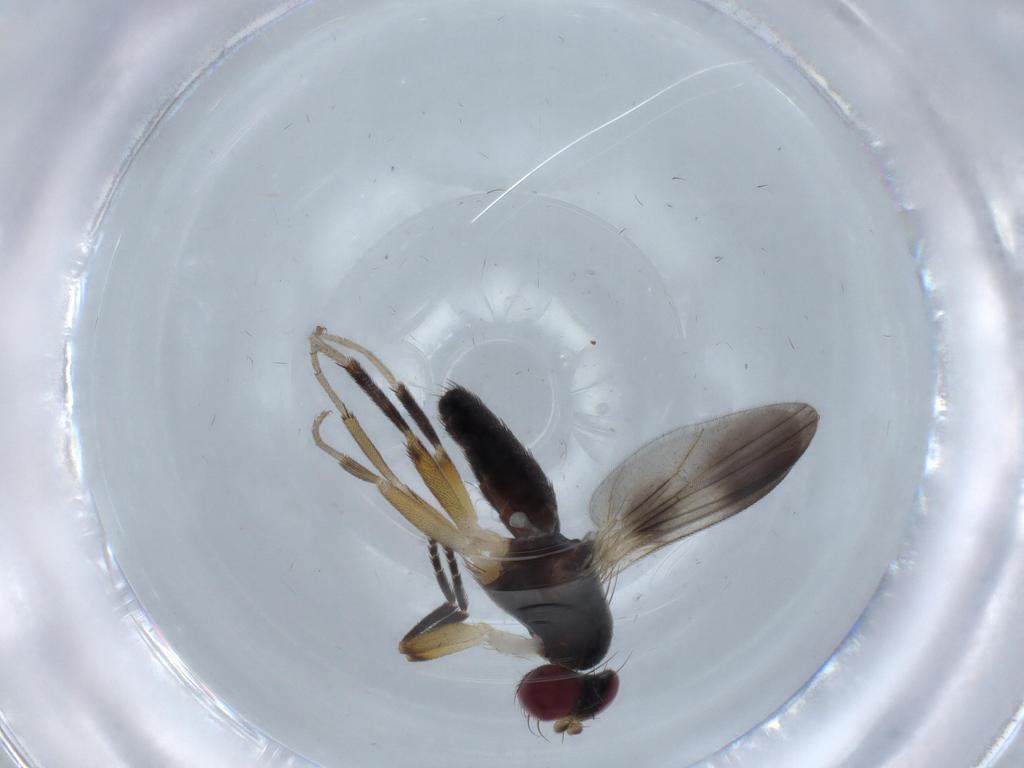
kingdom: Animalia
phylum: Arthropoda
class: Insecta
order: Diptera
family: Clusiidae
